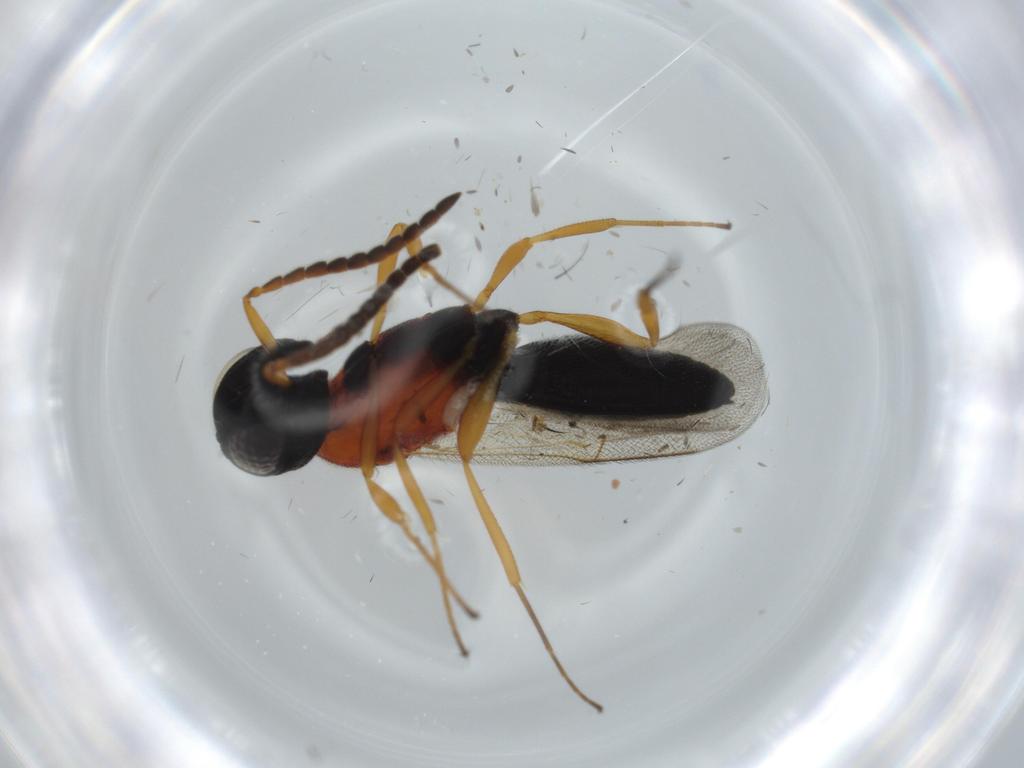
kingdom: Animalia
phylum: Arthropoda
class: Insecta
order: Hymenoptera
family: Scelionidae
